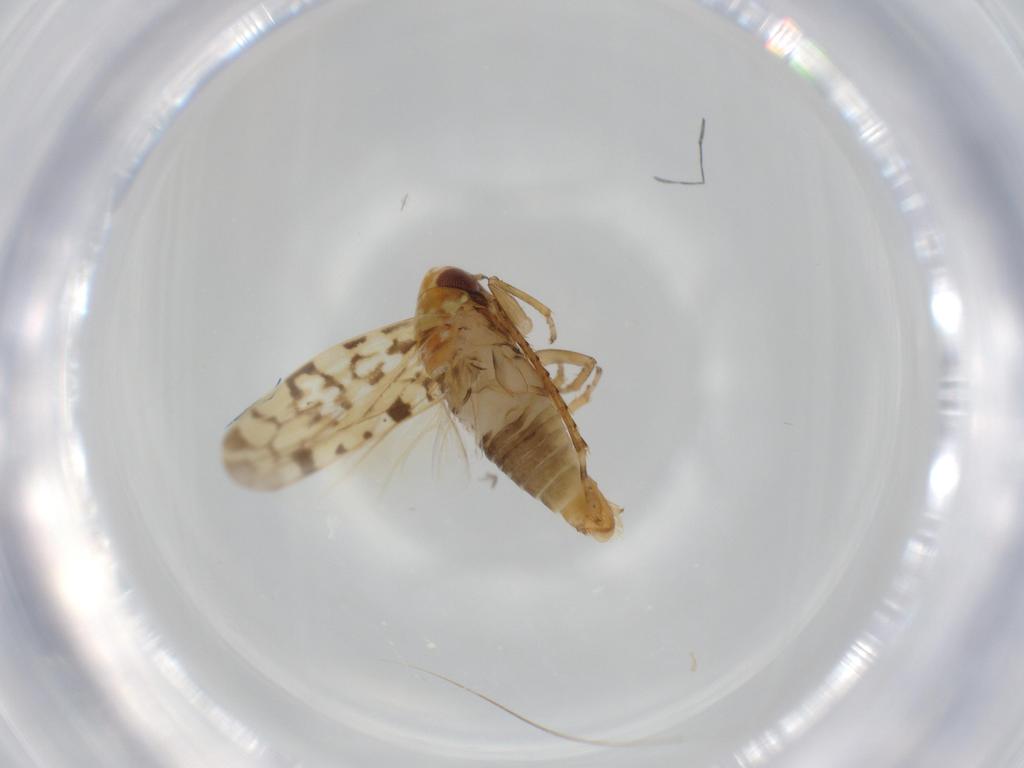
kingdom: Animalia
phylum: Arthropoda
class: Insecta
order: Hemiptera
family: Cicadellidae
